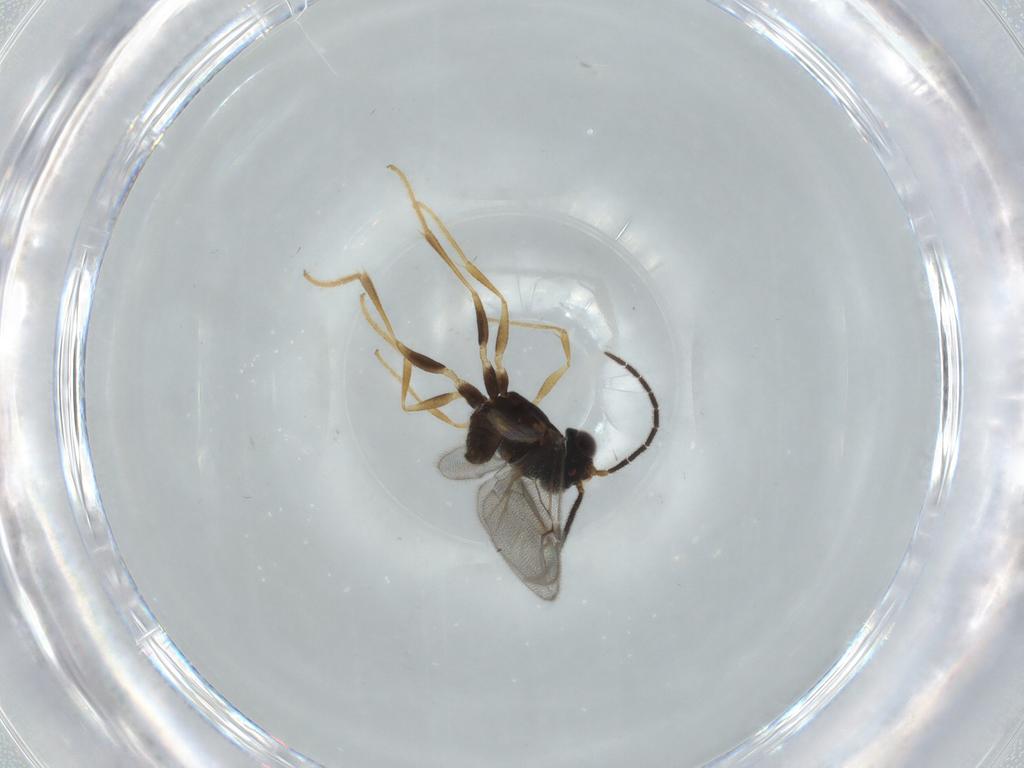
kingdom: Animalia
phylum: Arthropoda
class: Insecta
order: Hymenoptera
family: Dryinidae
